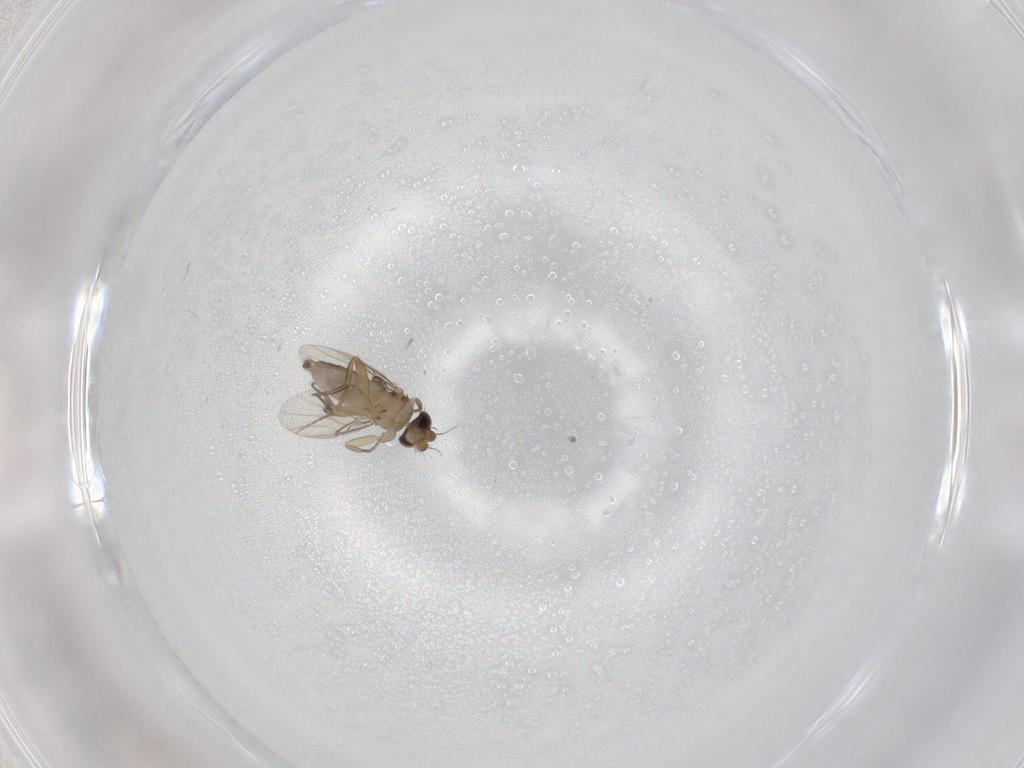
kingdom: Animalia
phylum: Arthropoda
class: Insecta
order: Diptera
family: Phoridae
